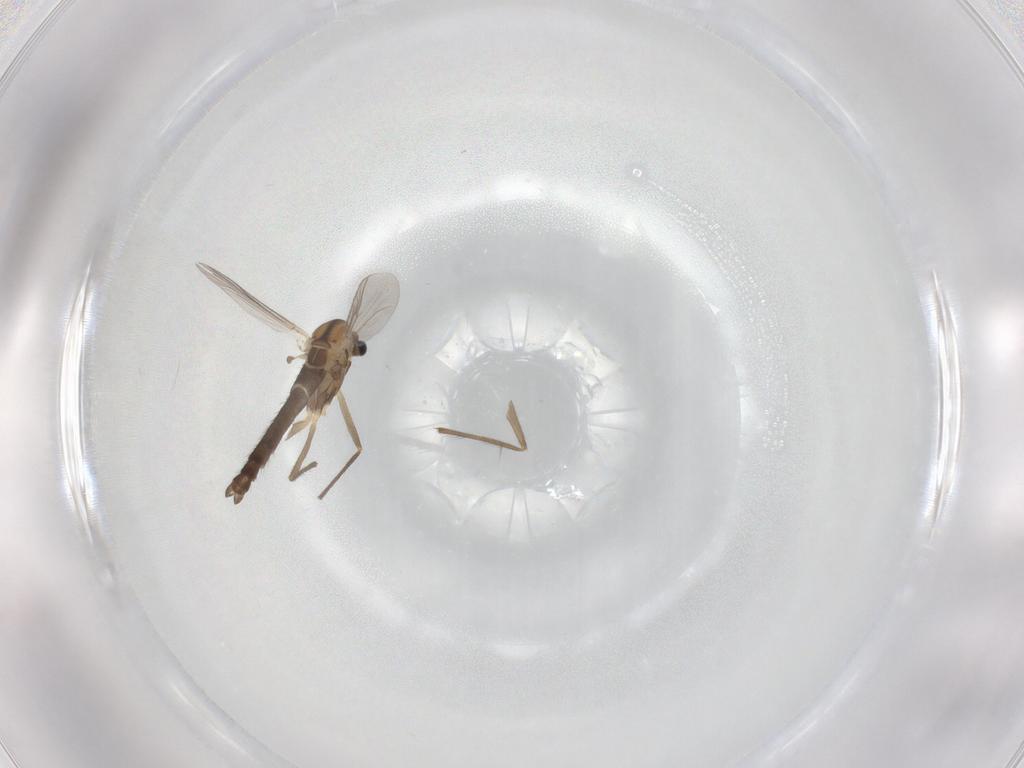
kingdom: Animalia
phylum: Arthropoda
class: Insecta
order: Diptera
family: Chironomidae
